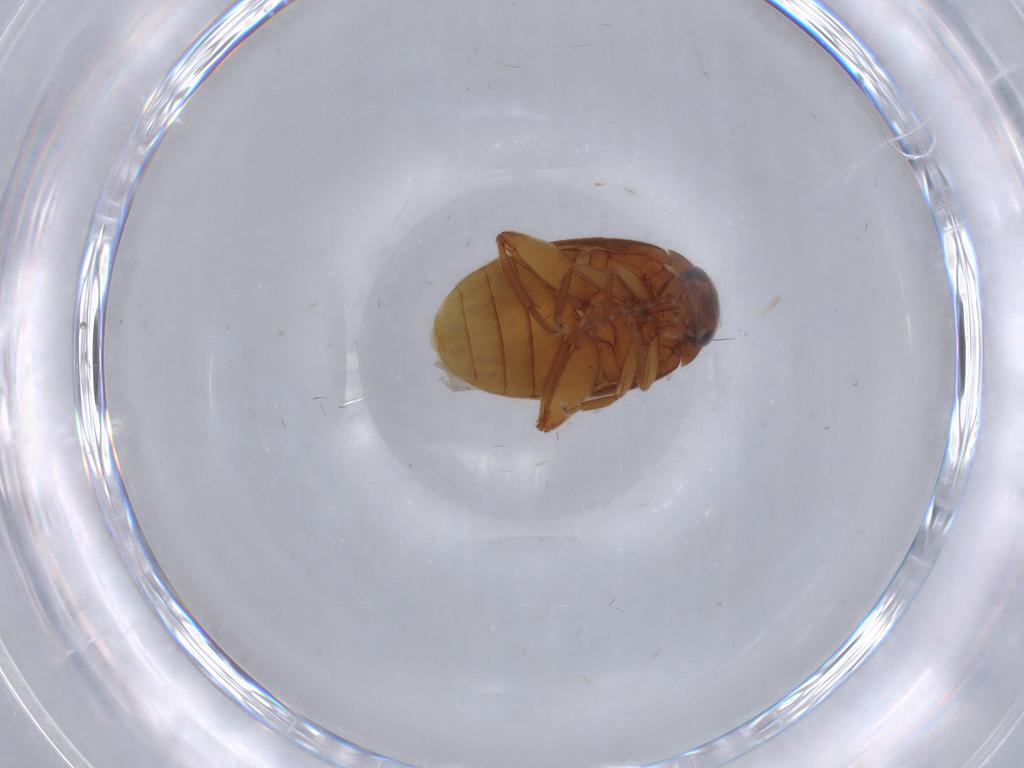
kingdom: Animalia
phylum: Arthropoda
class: Insecta
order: Coleoptera
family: Scirtidae
